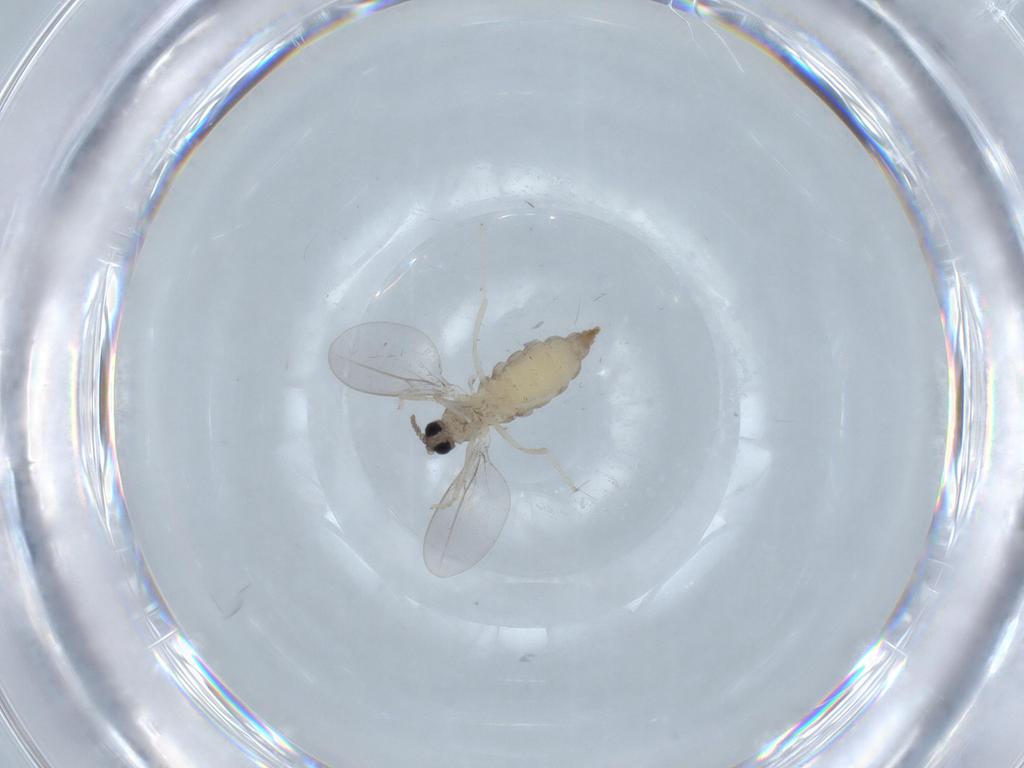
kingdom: Animalia
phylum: Arthropoda
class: Insecta
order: Diptera
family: Cecidomyiidae
